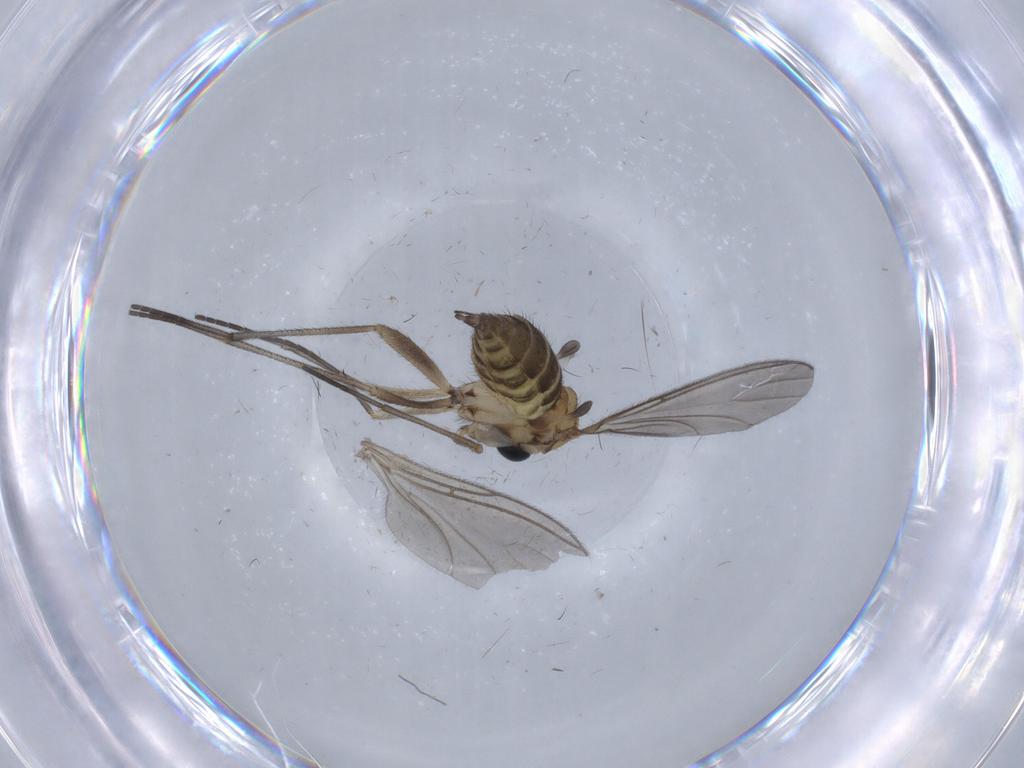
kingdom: Animalia
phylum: Arthropoda
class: Insecta
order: Diptera
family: Sciaridae
